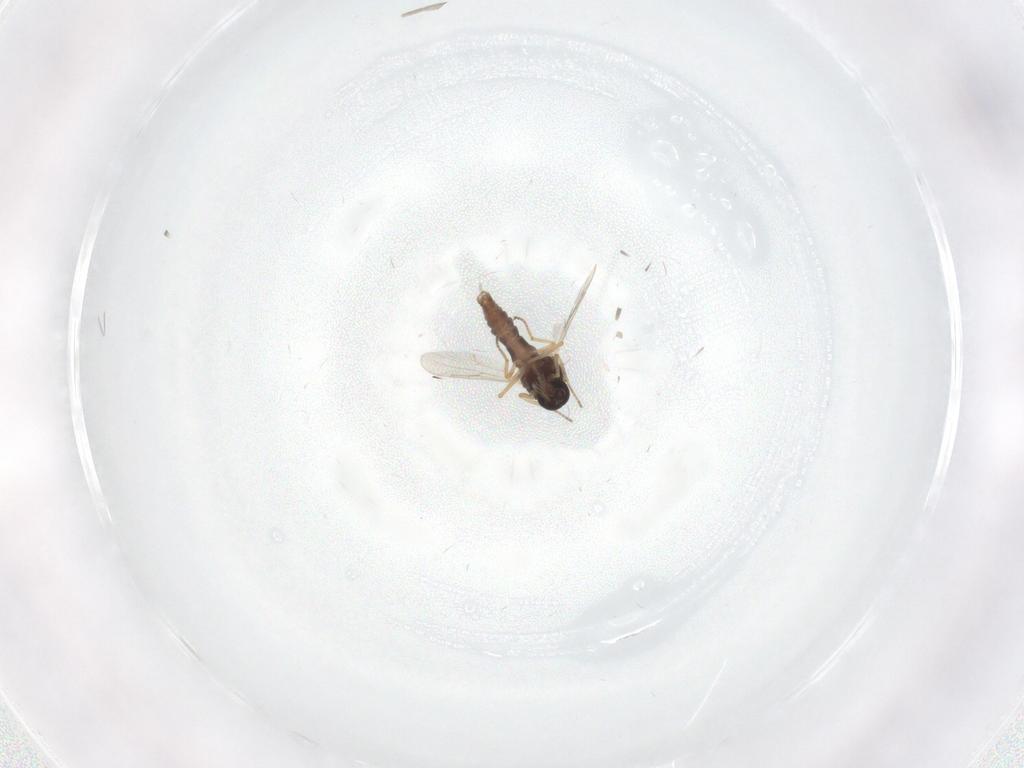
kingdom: Animalia
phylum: Arthropoda
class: Insecta
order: Diptera
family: Ceratopogonidae
